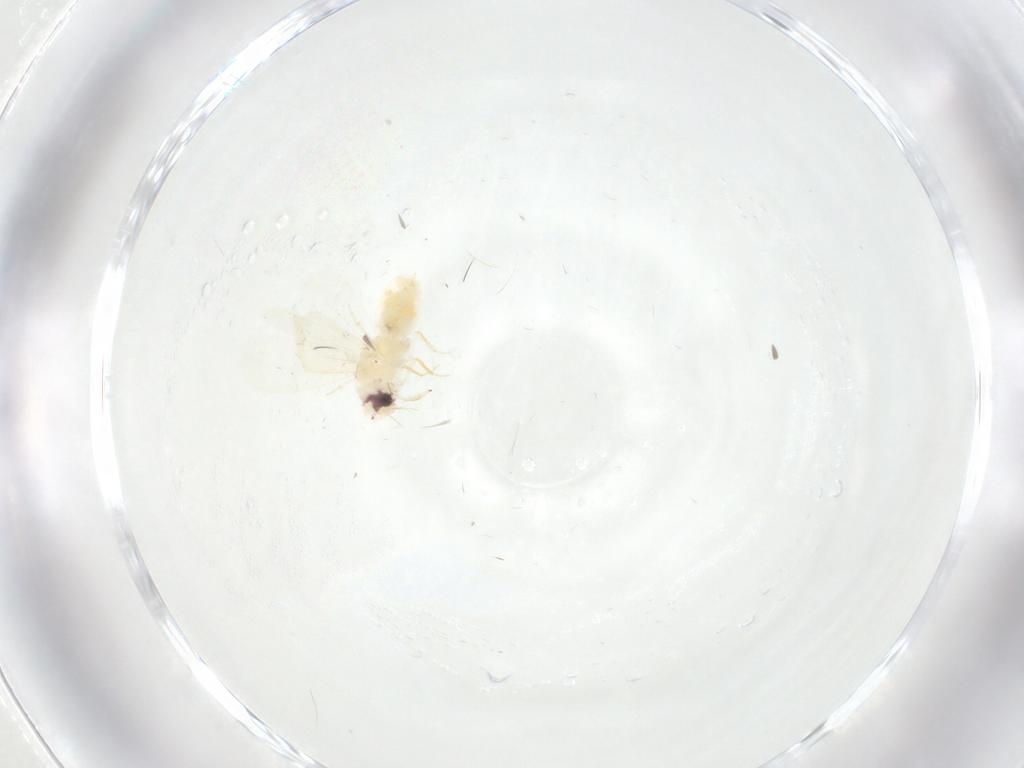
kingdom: Animalia
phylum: Arthropoda
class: Insecta
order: Hemiptera
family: Aleyrodidae
